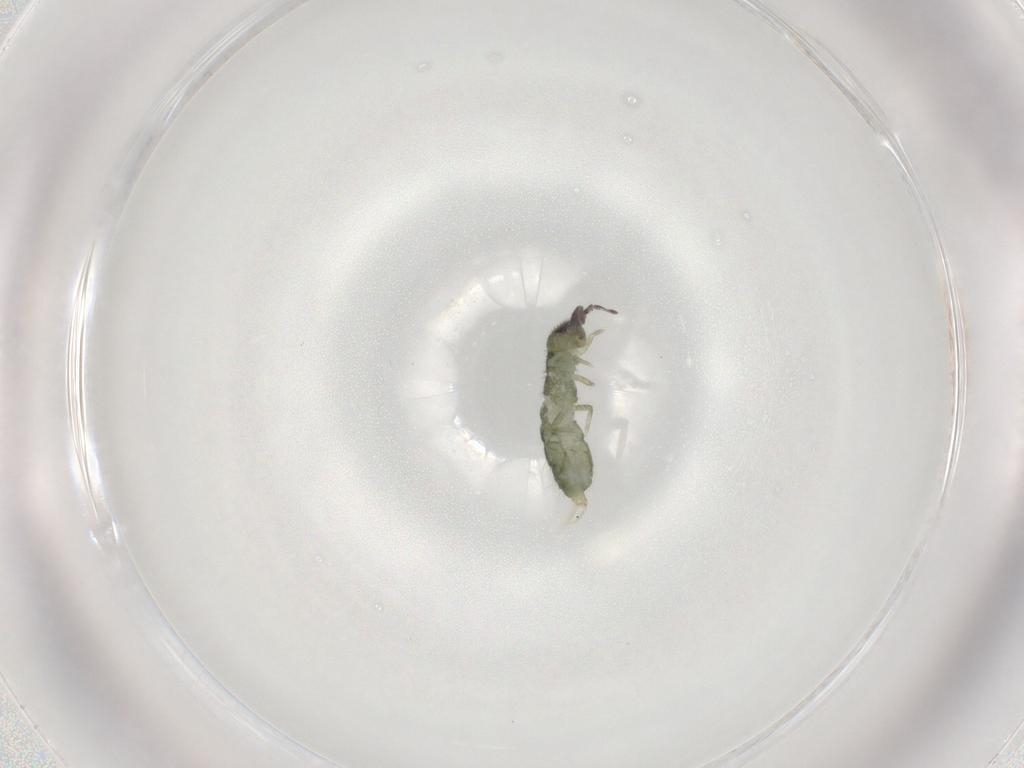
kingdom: Animalia
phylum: Arthropoda
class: Collembola
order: Entomobryomorpha
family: Isotomidae
